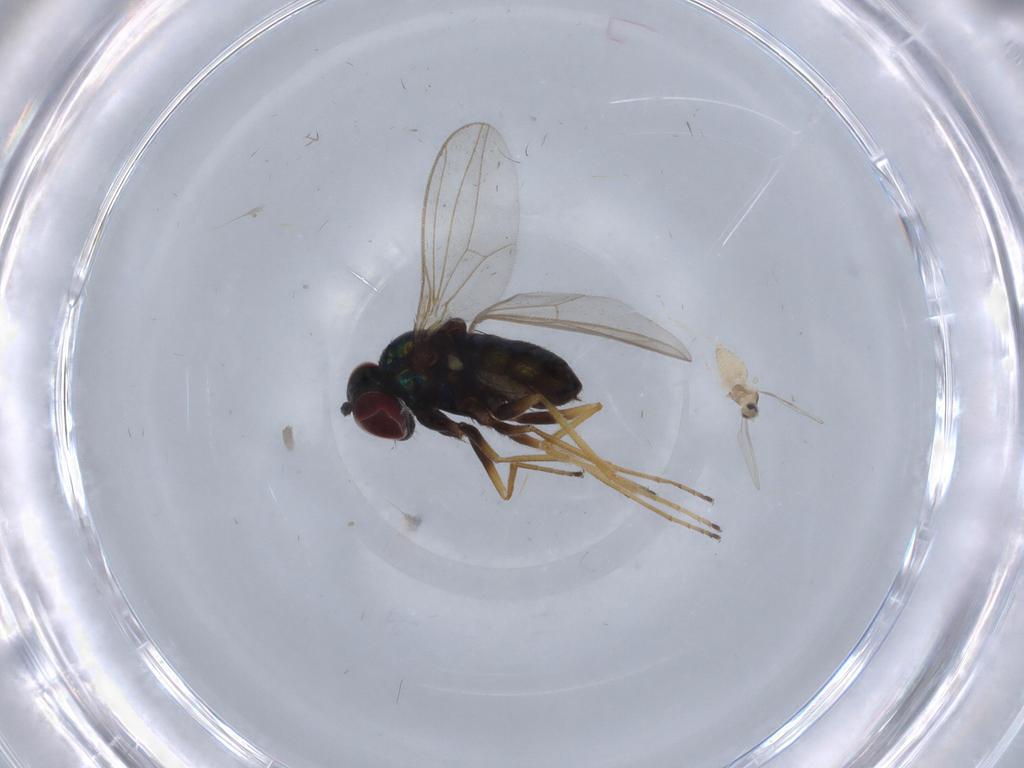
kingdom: Animalia
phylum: Arthropoda
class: Insecta
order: Diptera
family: Dolichopodidae
